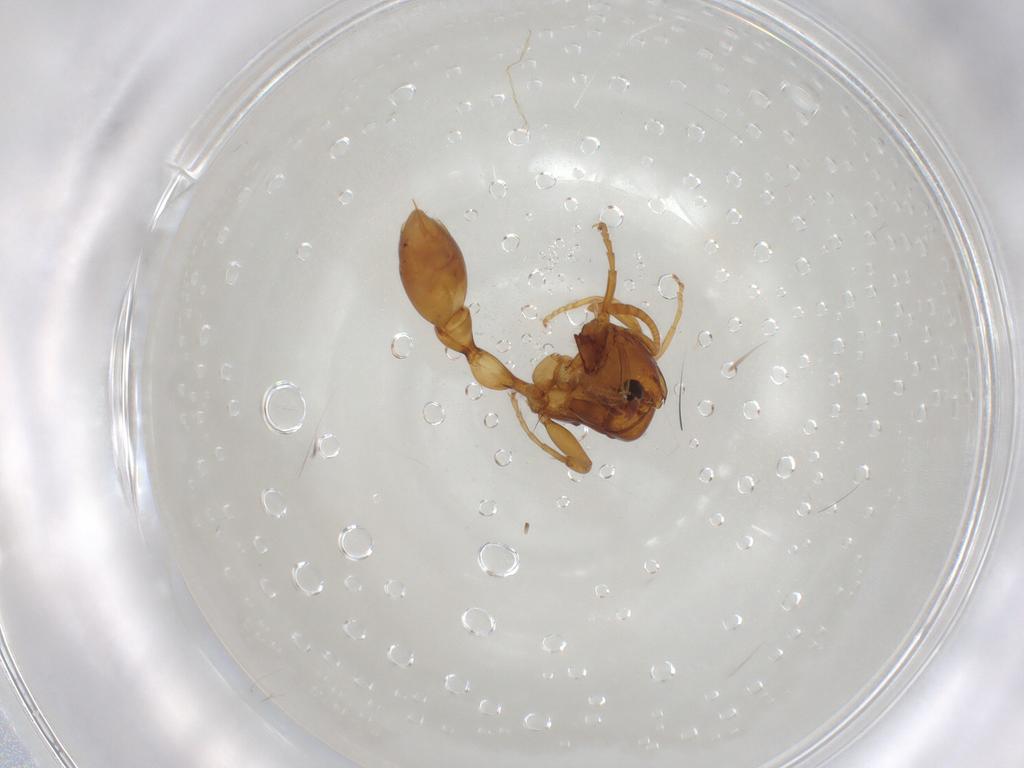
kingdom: Animalia
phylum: Arthropoda
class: Insecta
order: Hymenoptera
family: Formicidae
